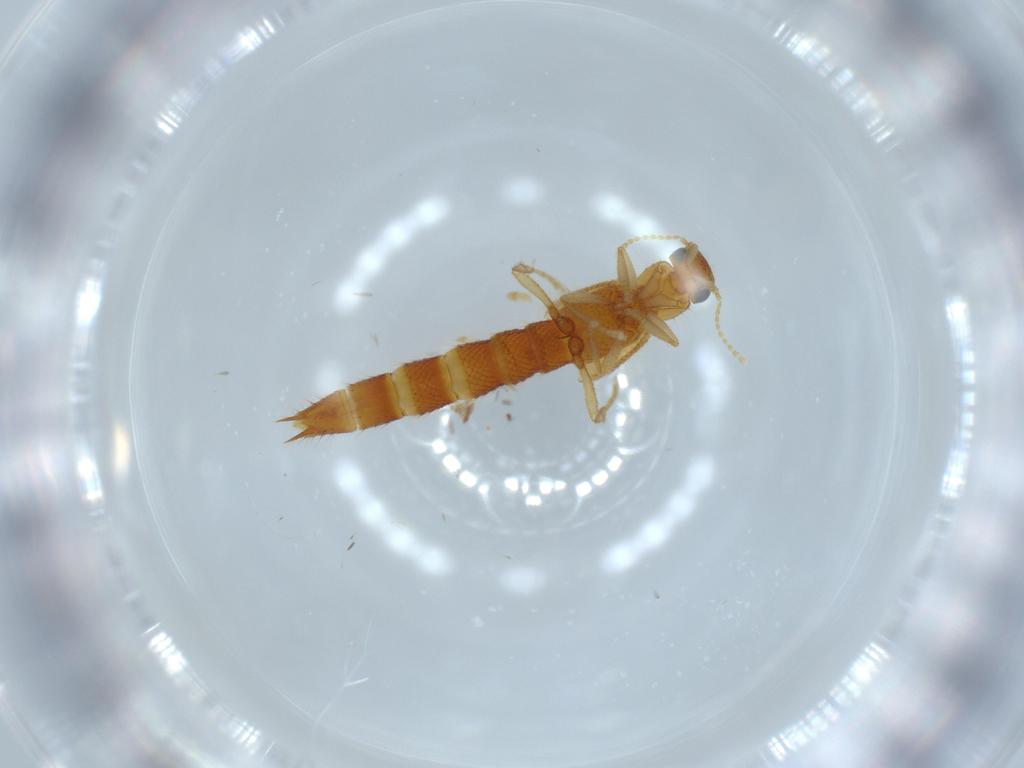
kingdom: Animalia
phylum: Arthropoda
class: Insecta
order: Coleoptera
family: Staphylinidae
